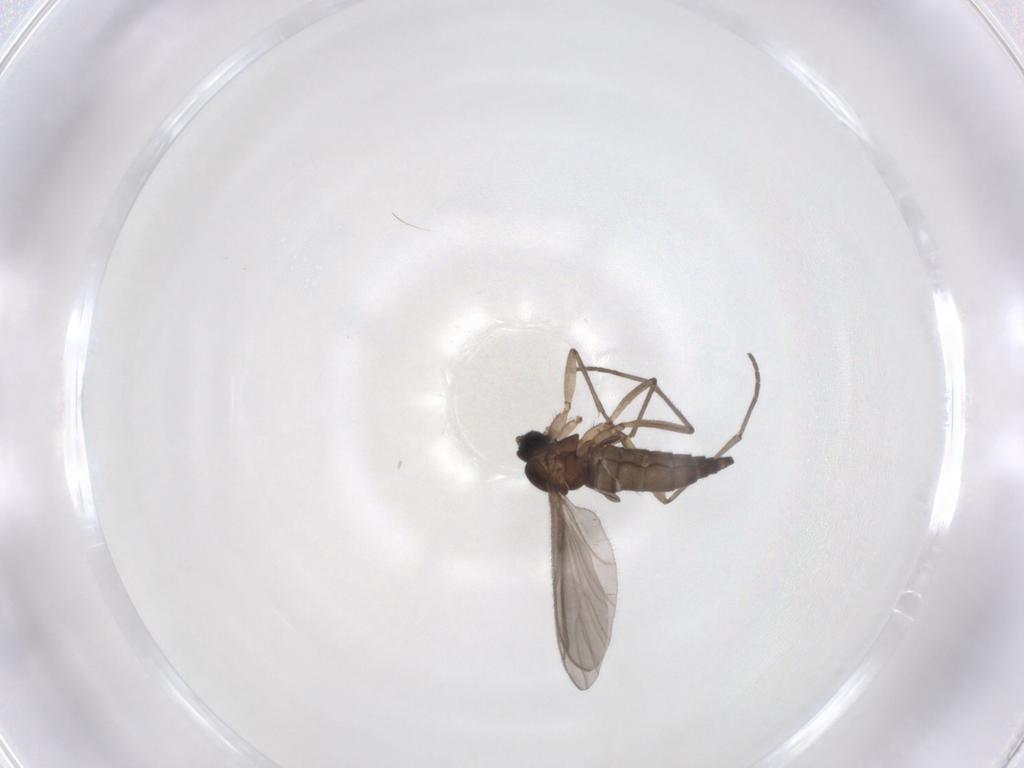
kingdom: Animalia
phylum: Arthropoda
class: Insecta
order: Diptera
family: Sciaridae
